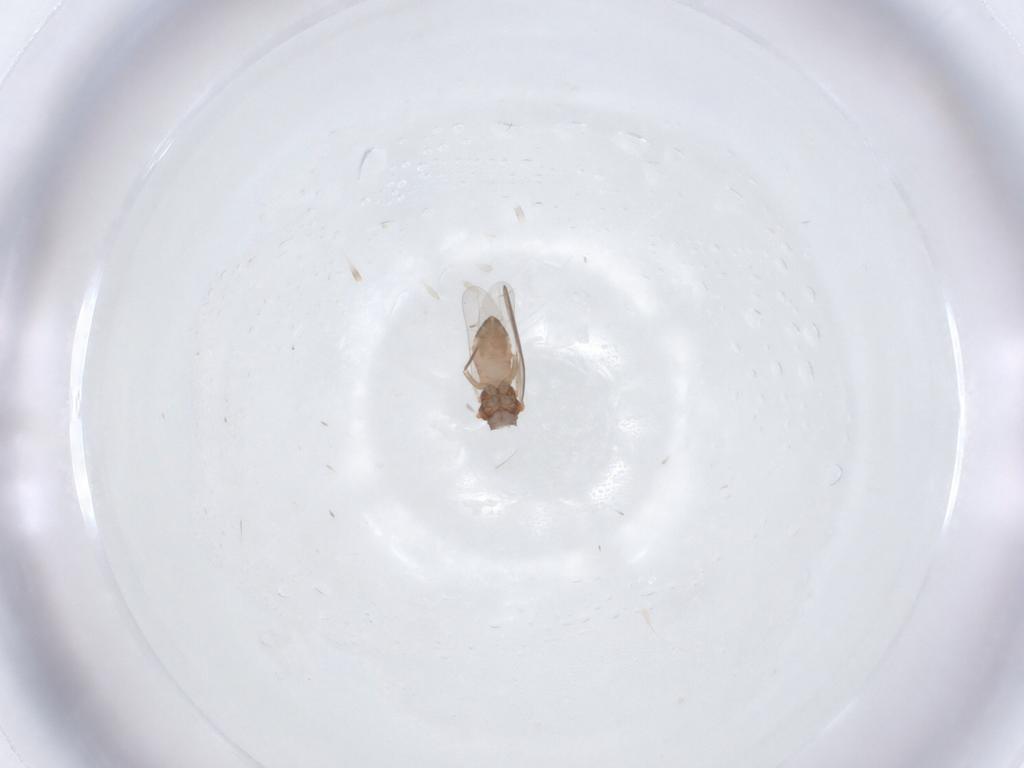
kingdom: Animalia
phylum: Arthropoda
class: Insecta
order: Psocodea
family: Lepidopsocidae
